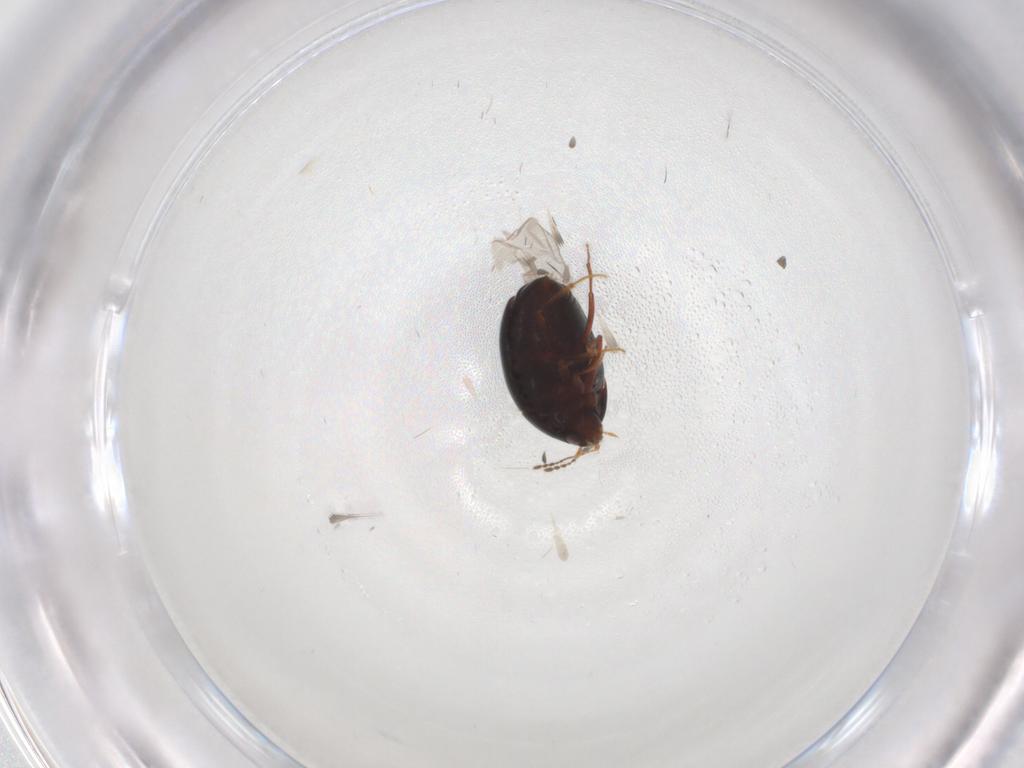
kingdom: Animalia
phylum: Arthropoda
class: Insecta
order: Coleoptera
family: Staphylinidae
